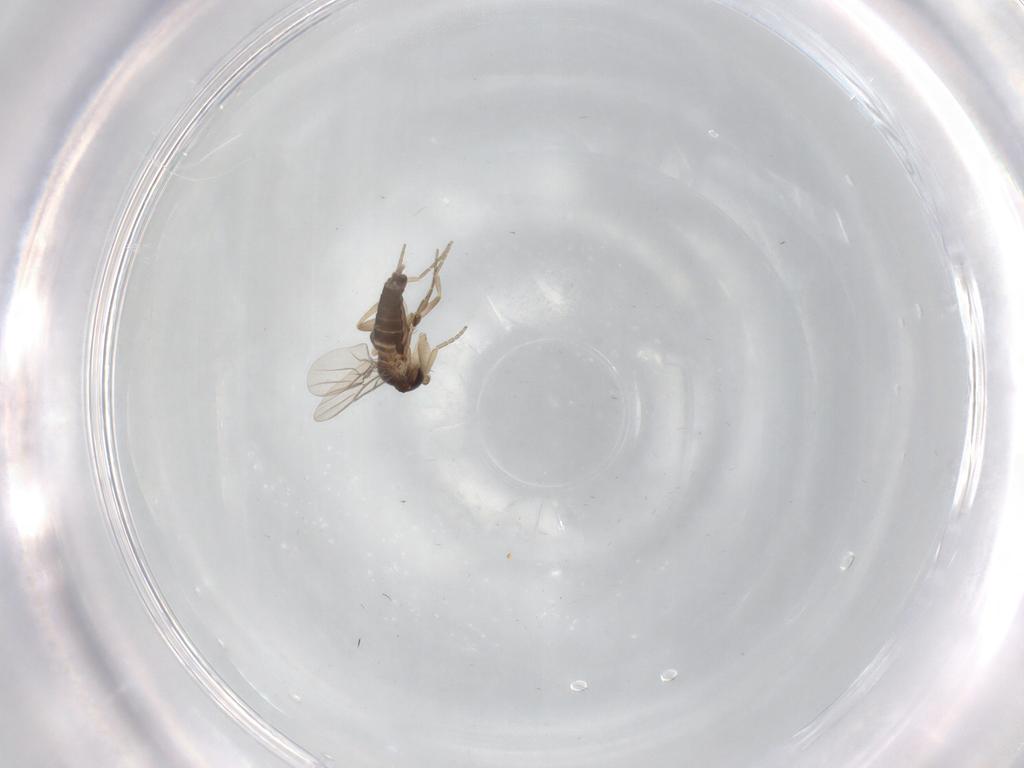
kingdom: Animalia
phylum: Arthropoda
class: Insecta
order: Diptera
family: Phoridae
